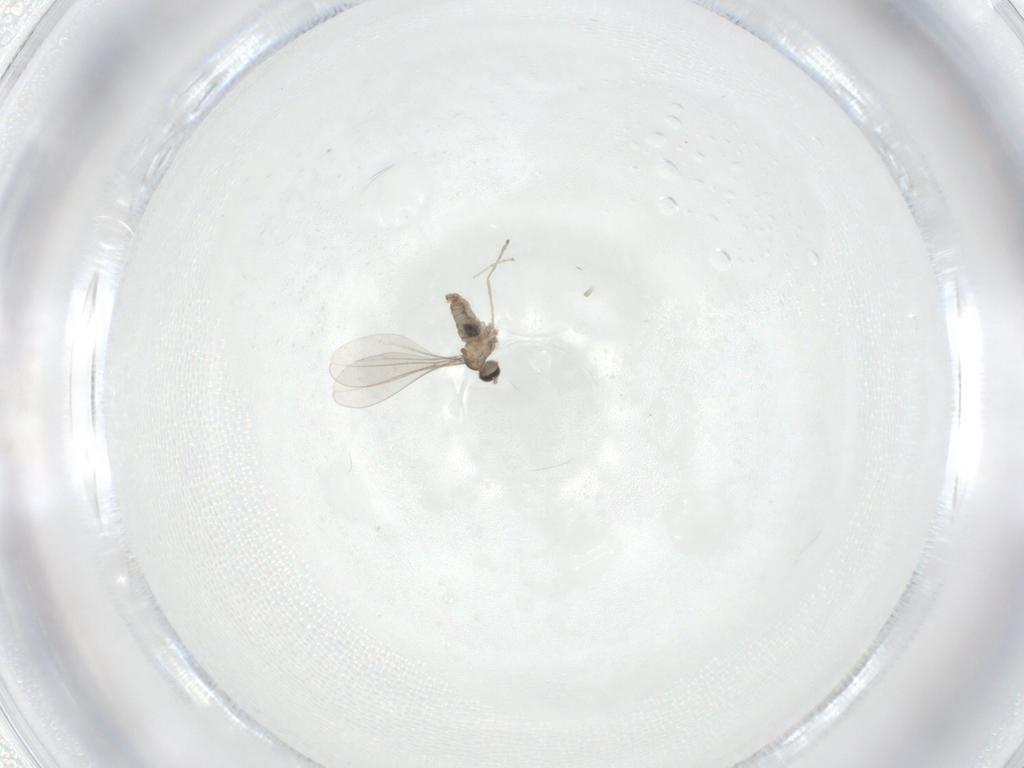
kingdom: Animalia
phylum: Arthropoda
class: Insecta
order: Diptera
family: Cecidomyiidae
